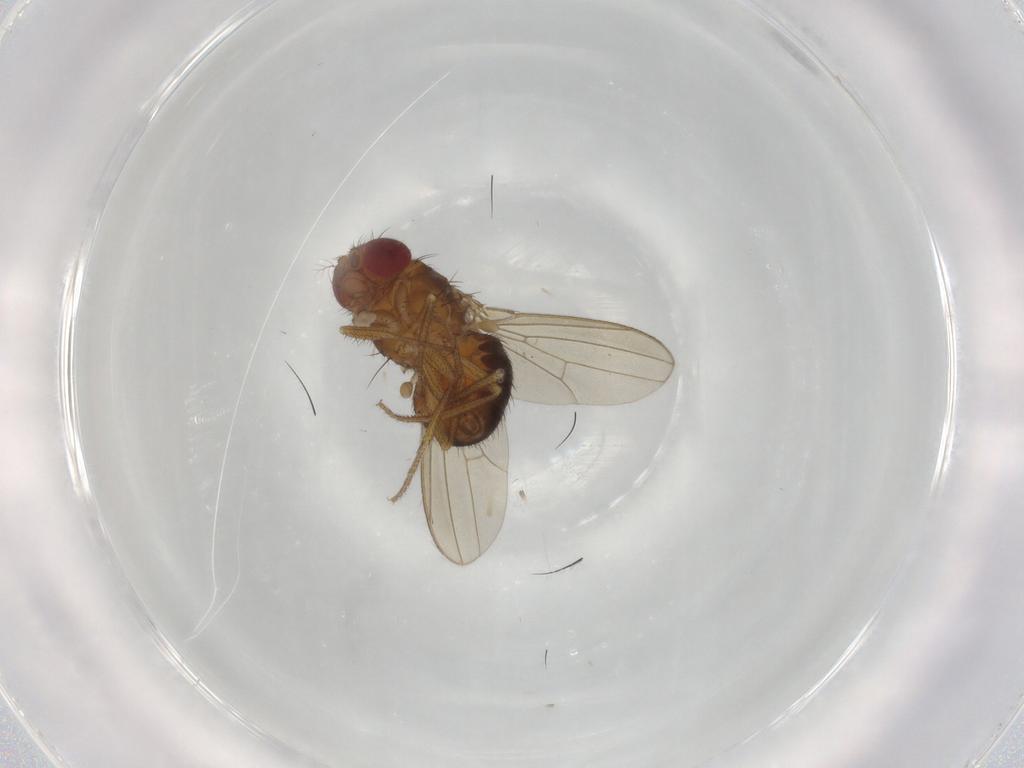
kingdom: Animalia
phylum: Arthropoda
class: Insecta
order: Diptera
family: Drosophilidae
